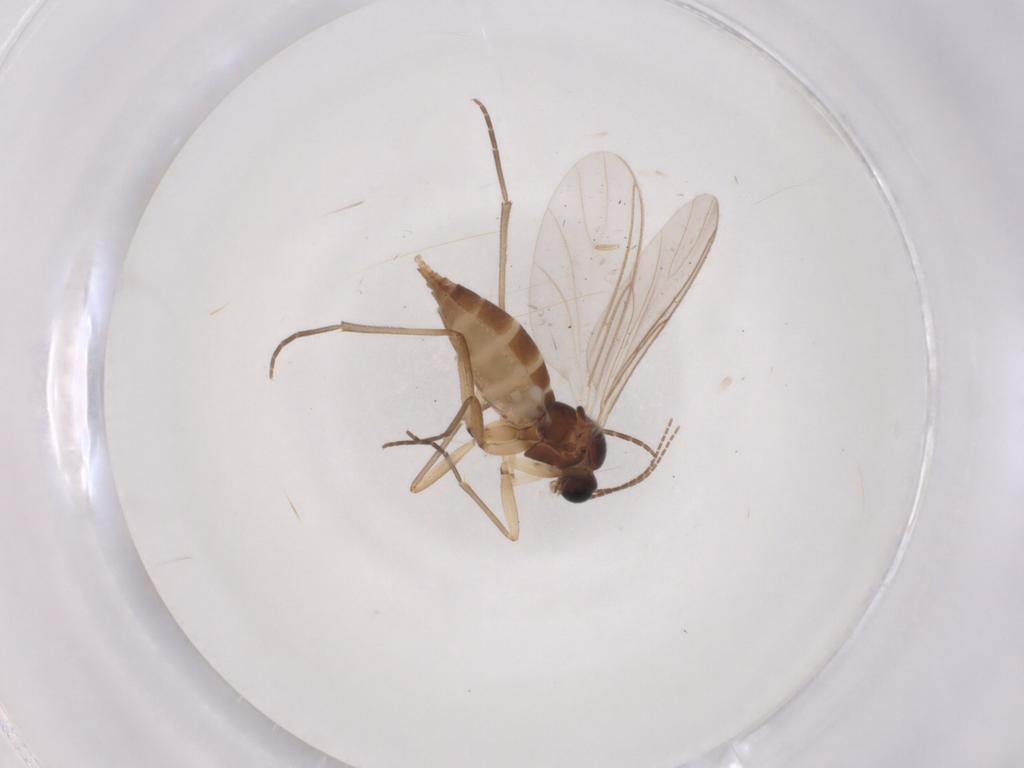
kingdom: Animalia
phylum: Arthropoda
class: Insecta
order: Diptera
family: Sciaridae
